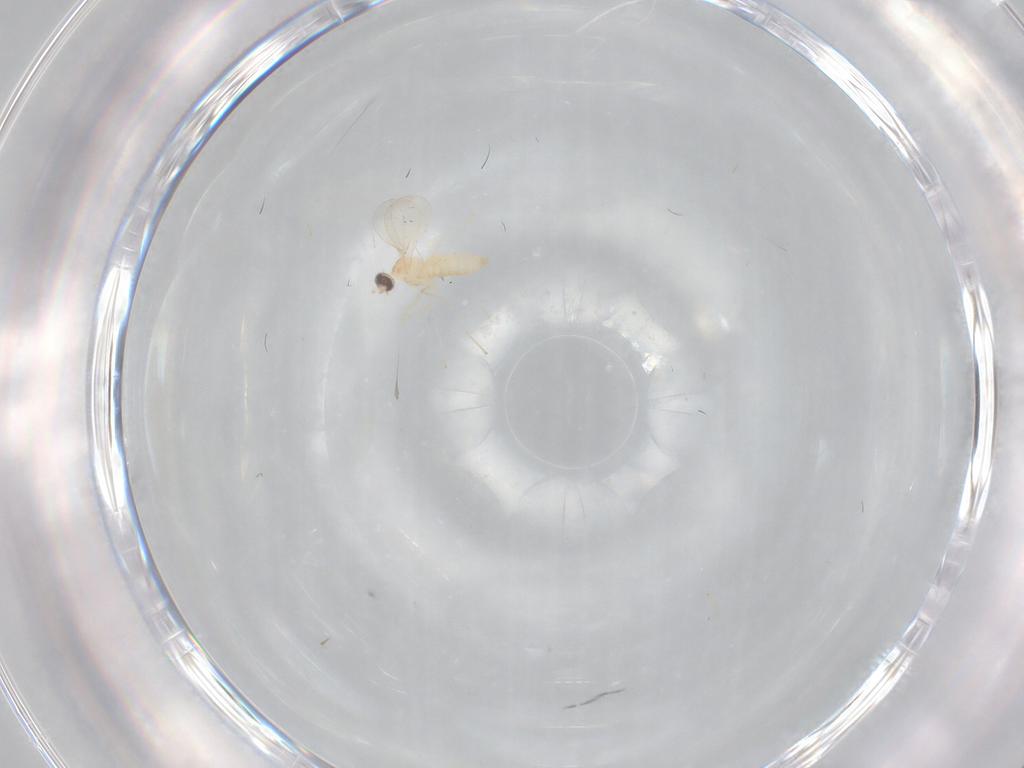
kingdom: Animalia
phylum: Arthropoda
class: Insecta
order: Diptera
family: Cecidomyiidae
